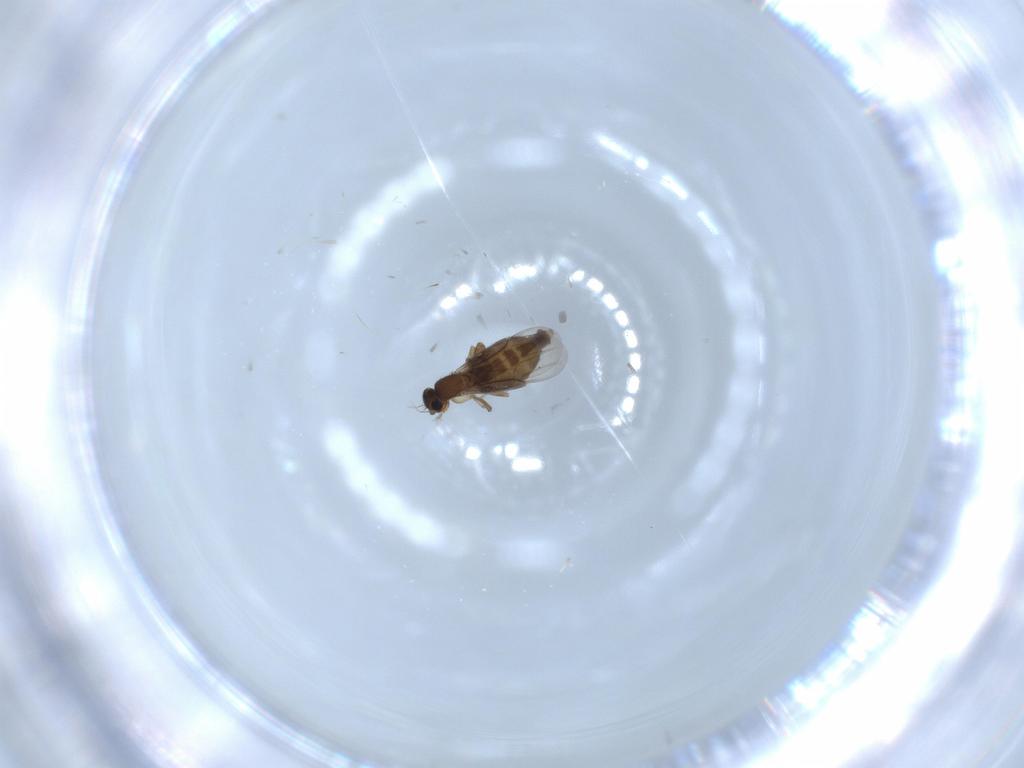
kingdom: Animalia
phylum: Arthropoda
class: Insecta
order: Diptera
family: Phoridae
